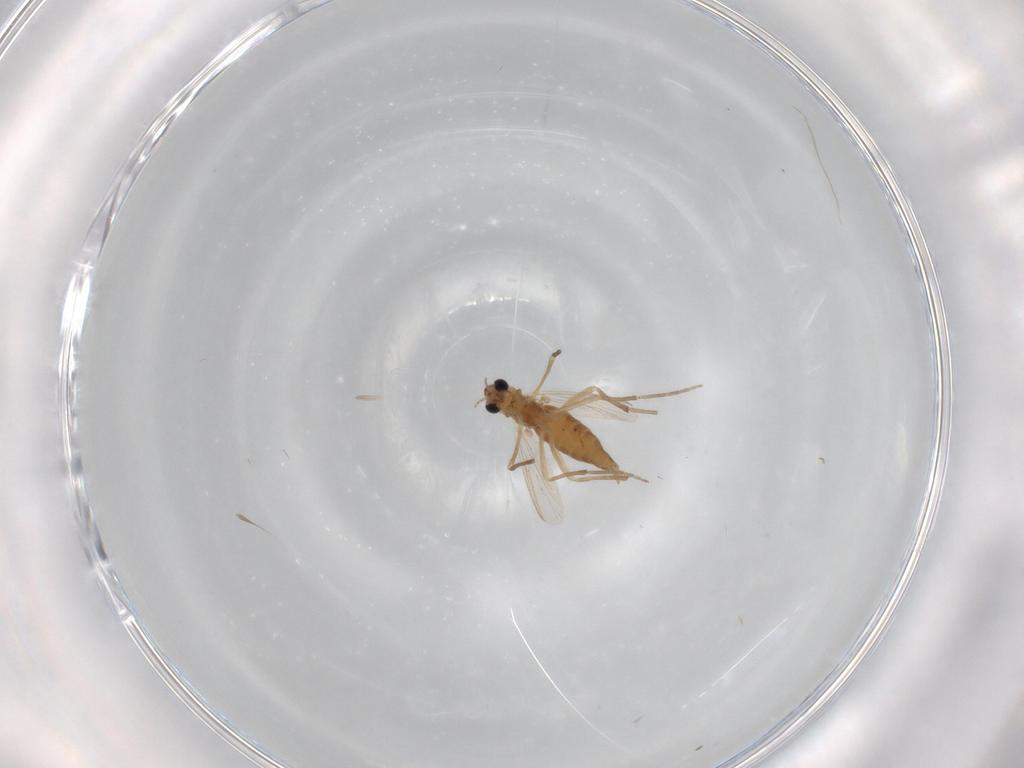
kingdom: Animalia
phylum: Arthropoda
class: Insecta
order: Diptera
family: Chironomidae
